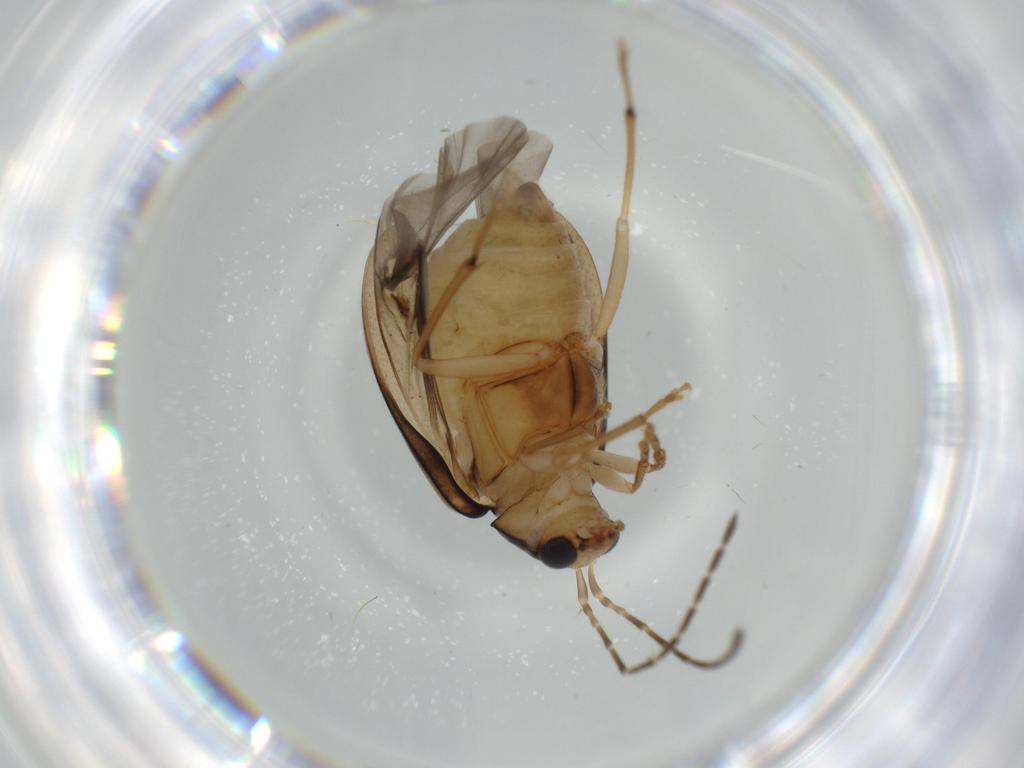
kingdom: Animalia
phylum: Arthropoda
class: Insecta
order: Coleoptera
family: Chrysomelidae
